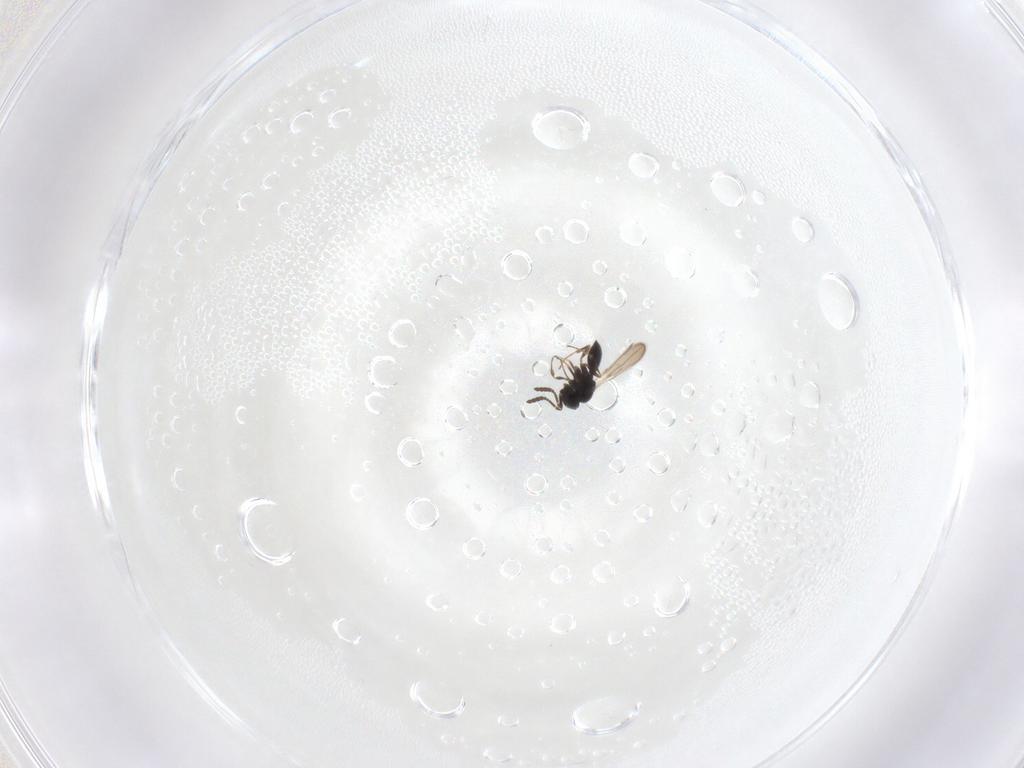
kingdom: Animalia
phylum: Arthropoda
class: Insecta
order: Hymenoptera
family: Scelionidae
